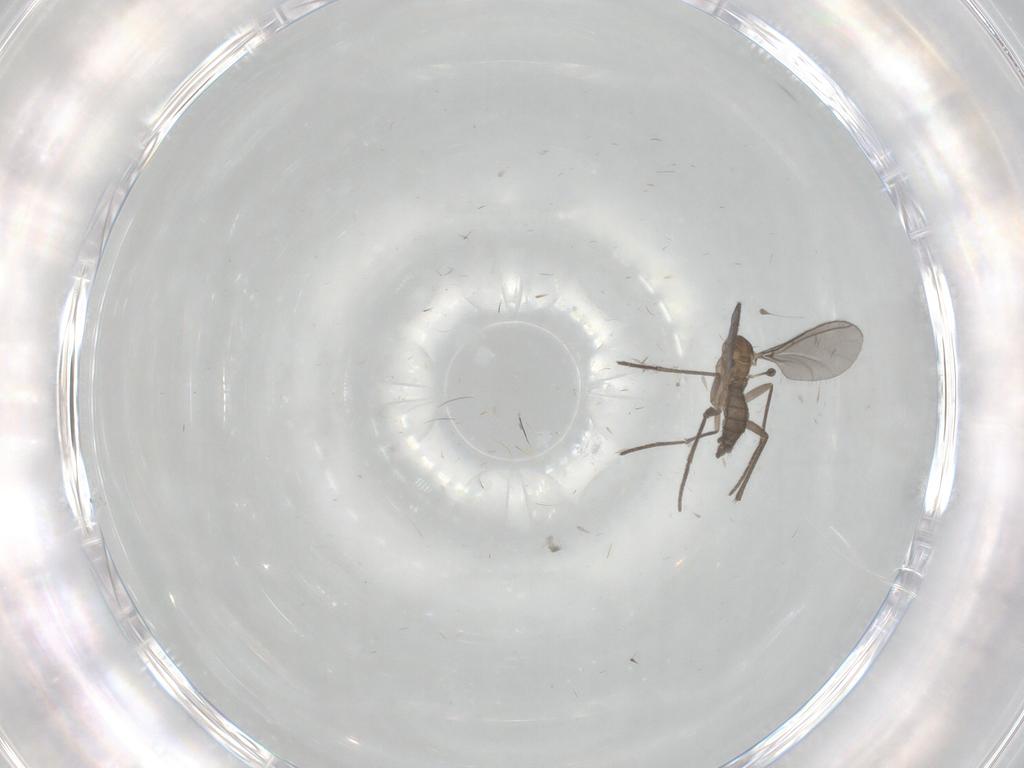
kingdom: Animalia
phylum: Arthropoda
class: Insecta
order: Diptera
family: Sciaridae
